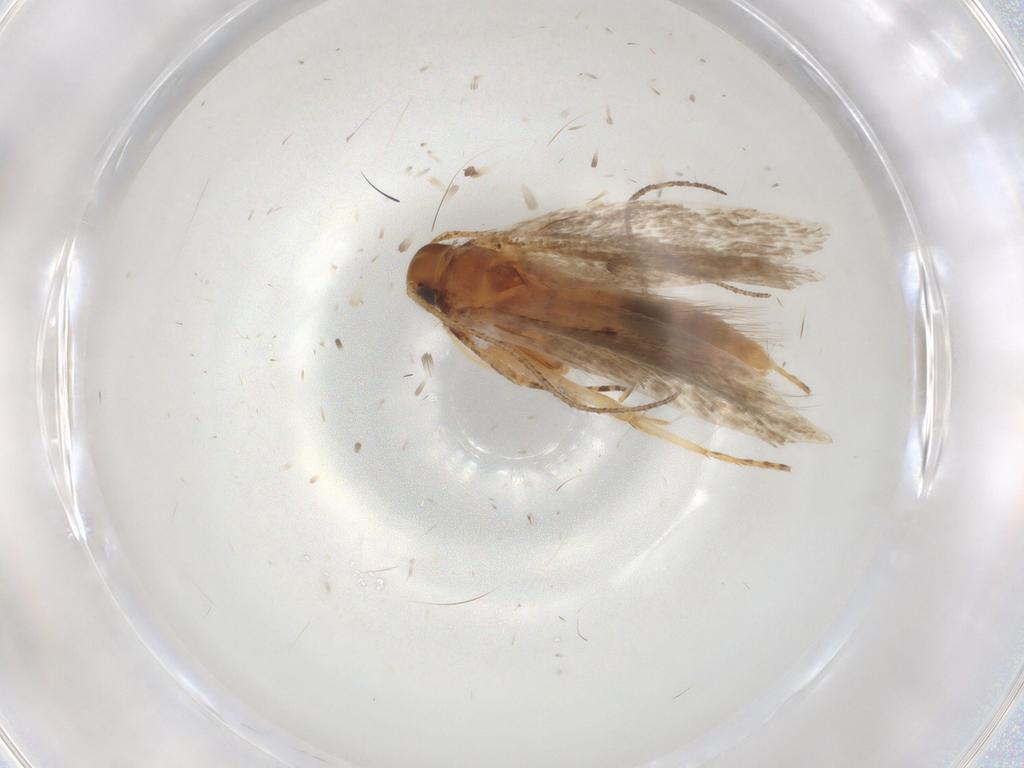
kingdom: Animalia
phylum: Arthropoda
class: Insecta
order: Lepidoptera
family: Gelechiidae
